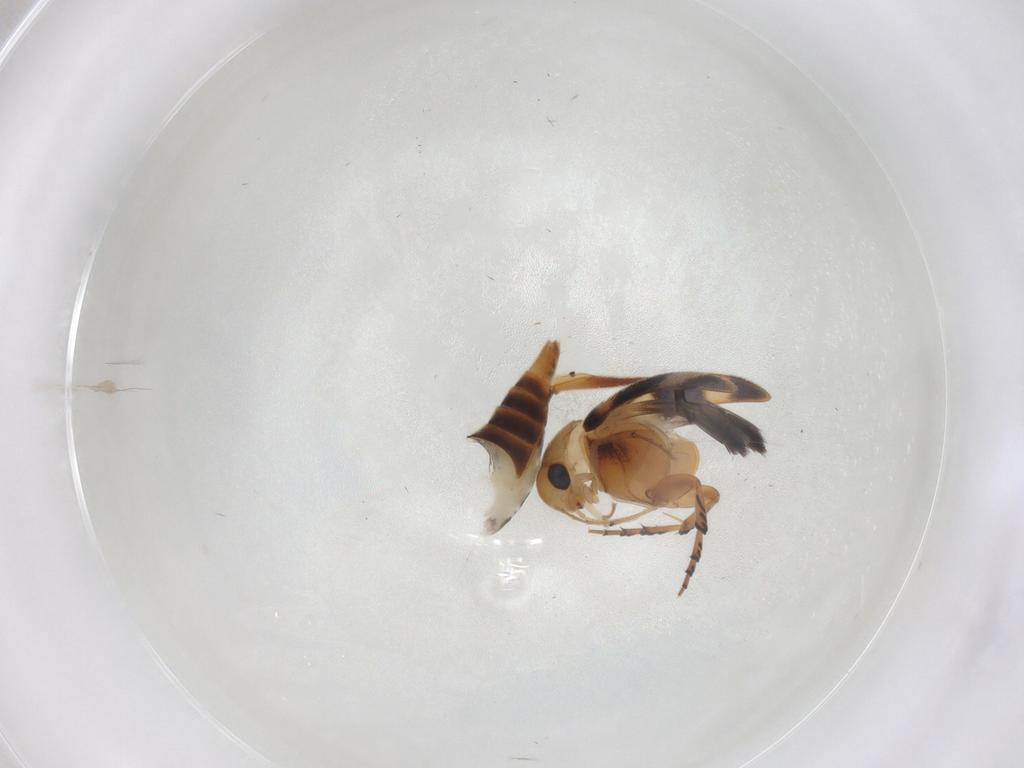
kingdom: Animalia
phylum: Arthropoda
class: Insecta
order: Coleoptera
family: Mordellidae
